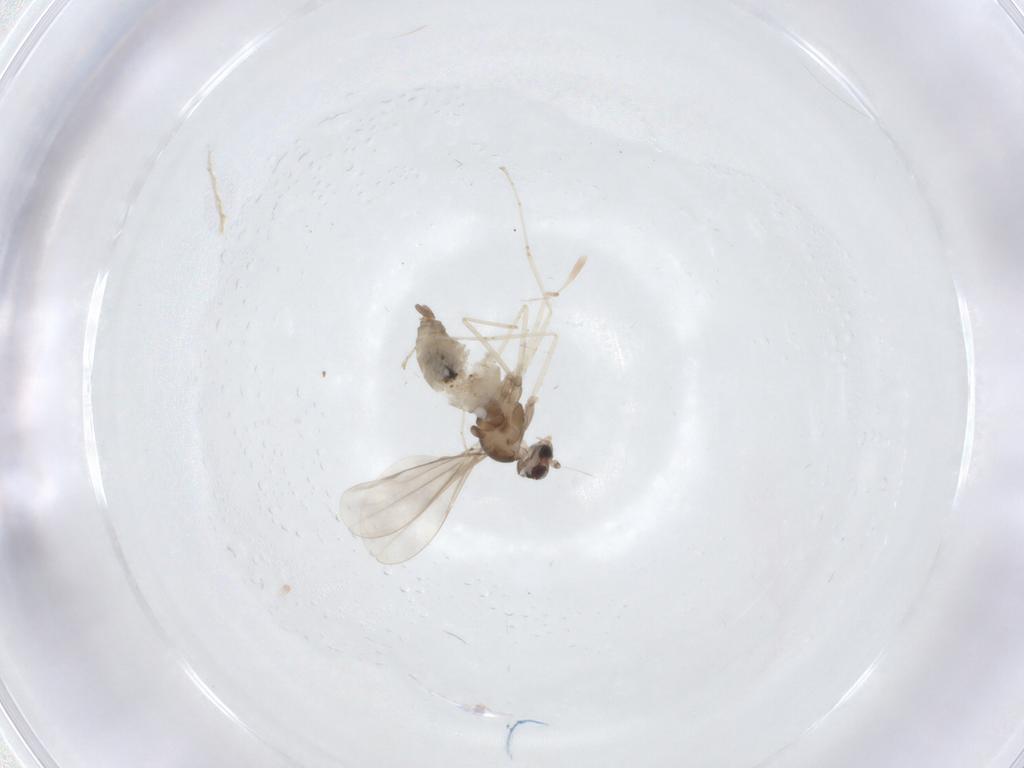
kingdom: Animalia
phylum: Arthropoda
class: Insecta
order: Diptera
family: Cecidomyiidae
